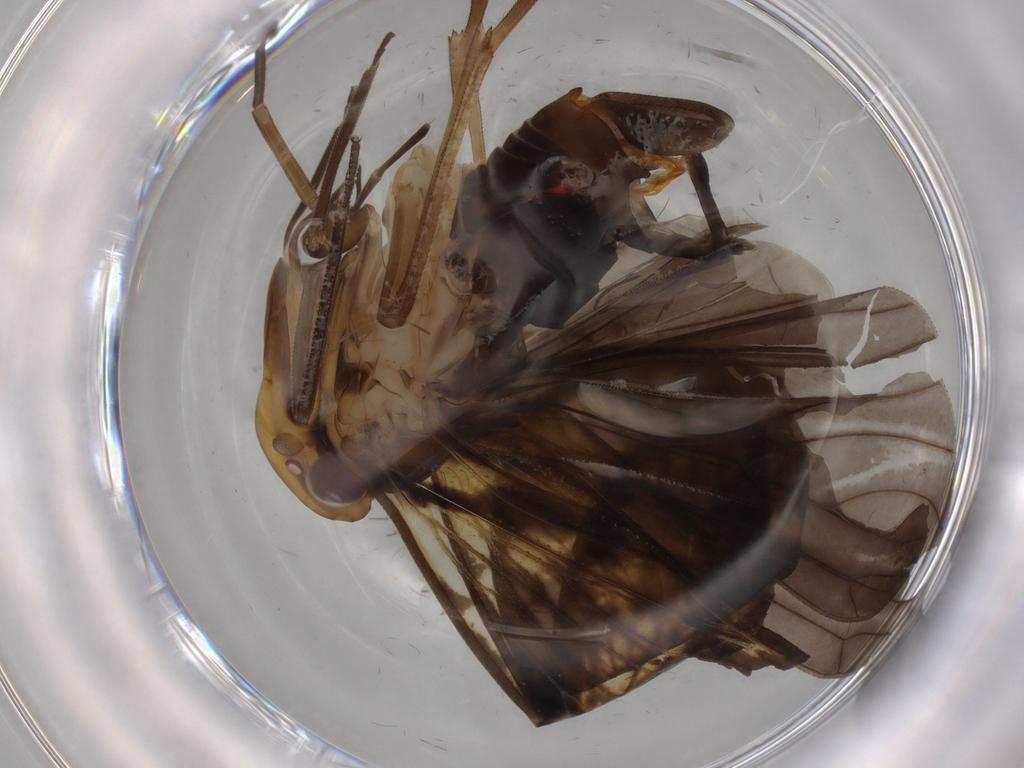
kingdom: Animalia
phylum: Arthropoda
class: Insecta
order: Hemiptera
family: Cixiidae
